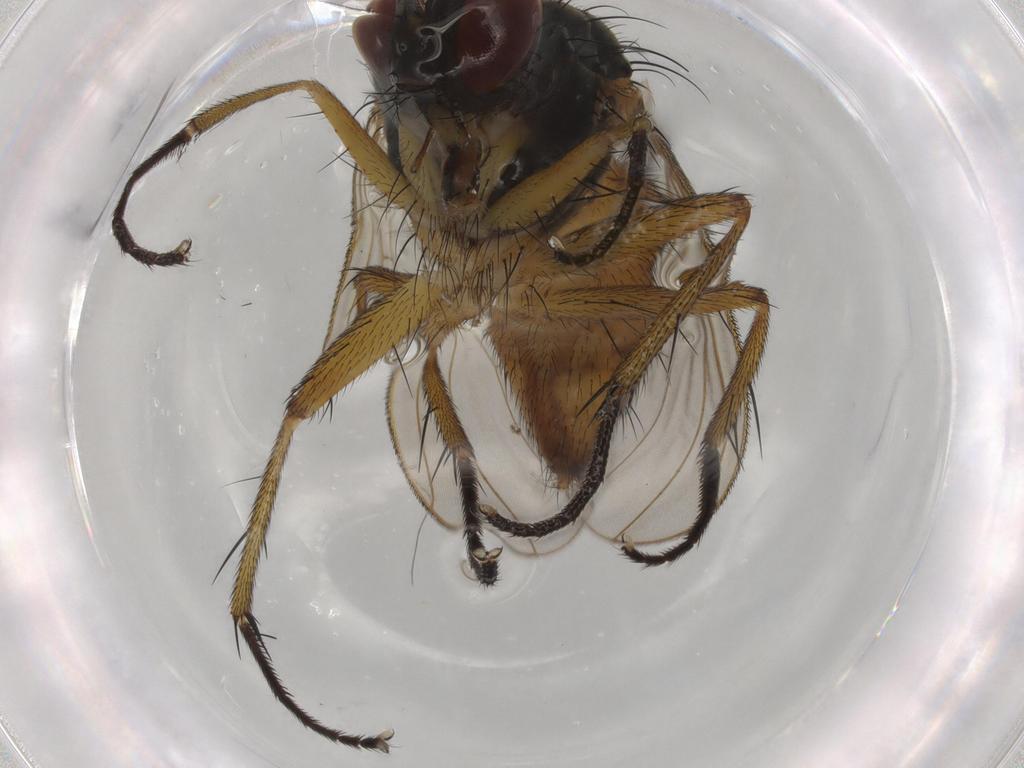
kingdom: Animalia
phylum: Arthropoda
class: Insecta
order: Diptera
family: Muscidae
